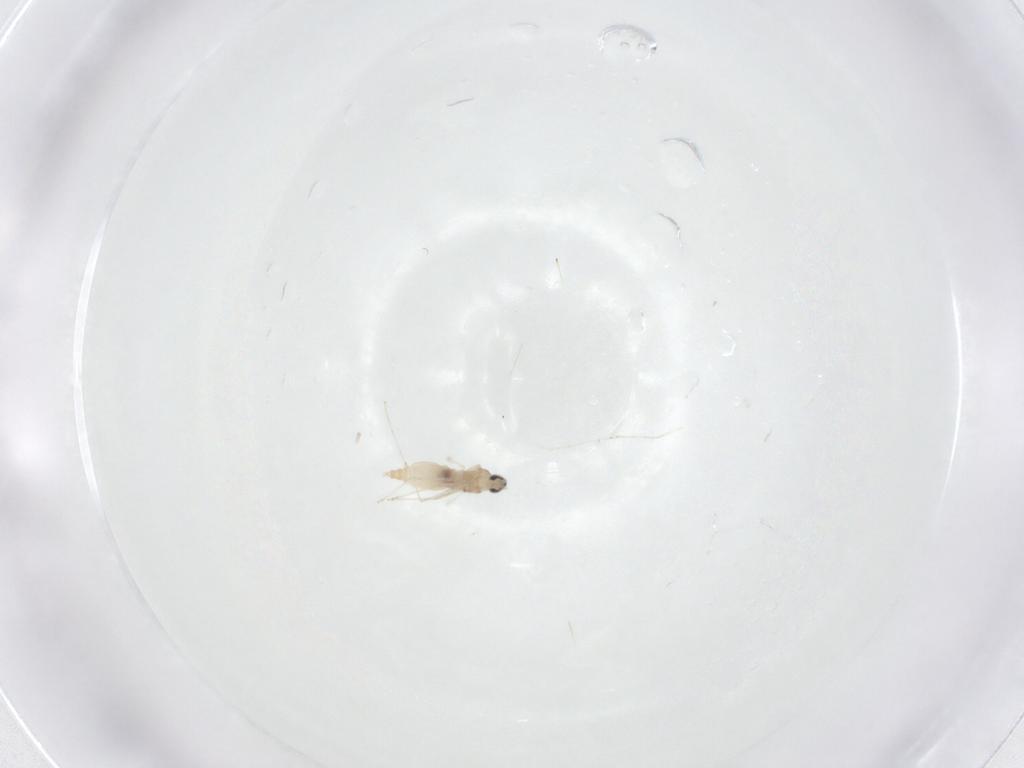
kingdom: Animalia
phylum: Arthropoda
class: Insecta
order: Diptera
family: Cecidomyiidae
